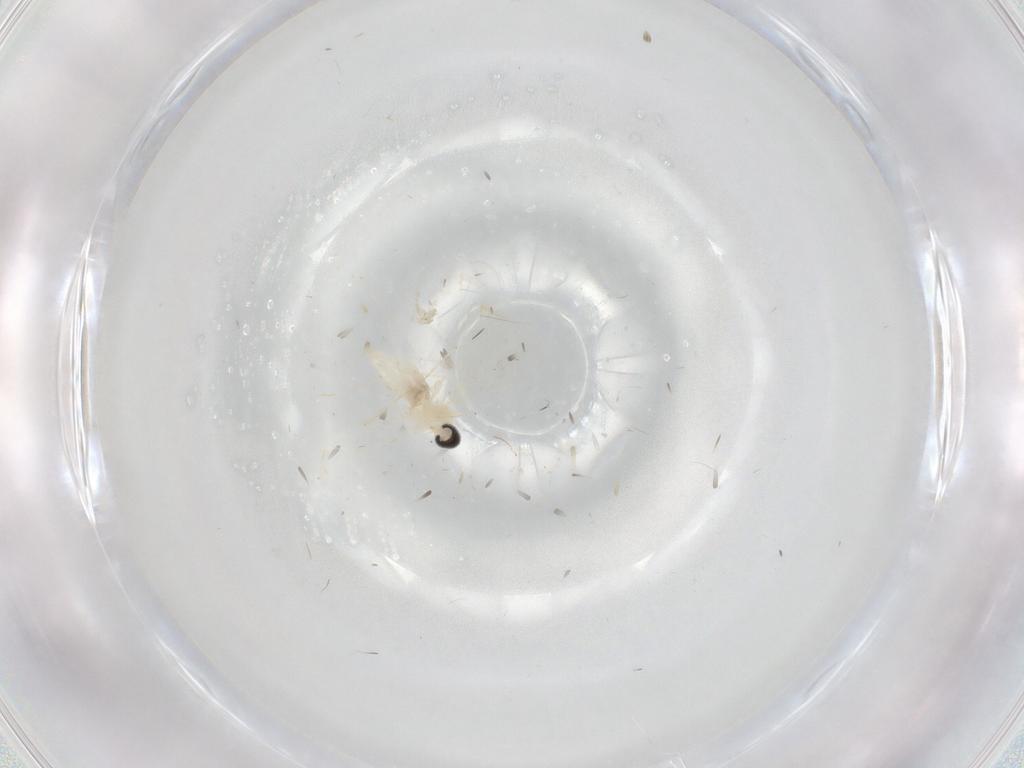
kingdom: Animalia
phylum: Arthropoda
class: Insecta
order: Diptera
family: Cecidomyiidae
